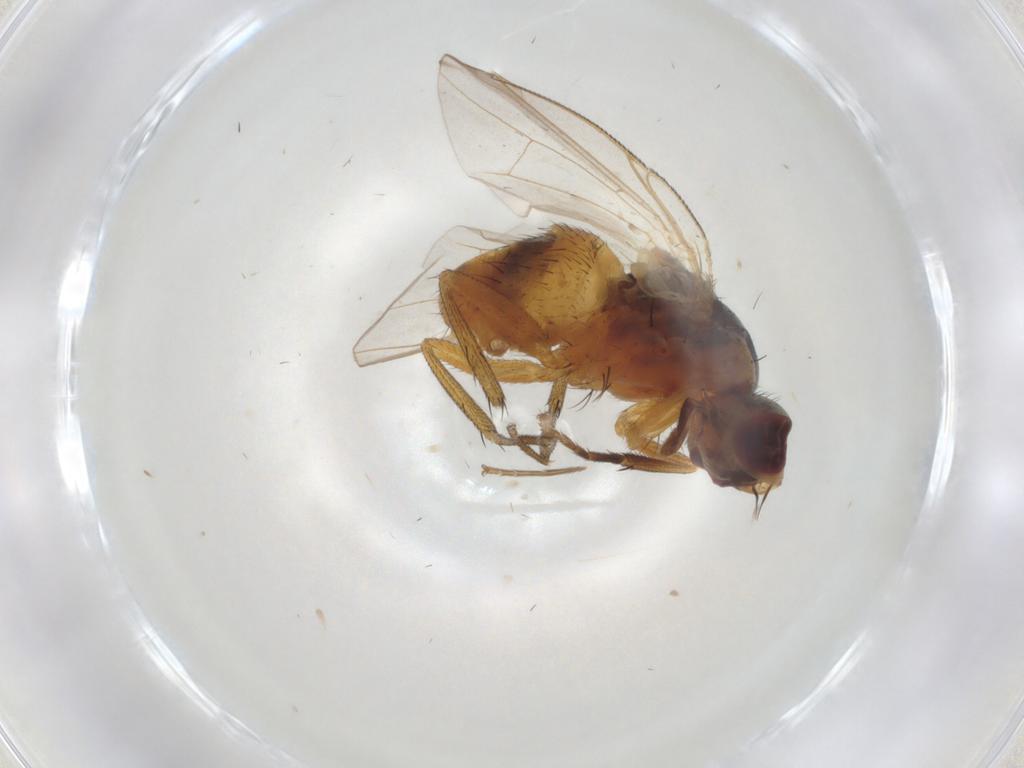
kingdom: Animalia
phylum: Arthropoda
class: Insecta
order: Diptera
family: Muscidae
